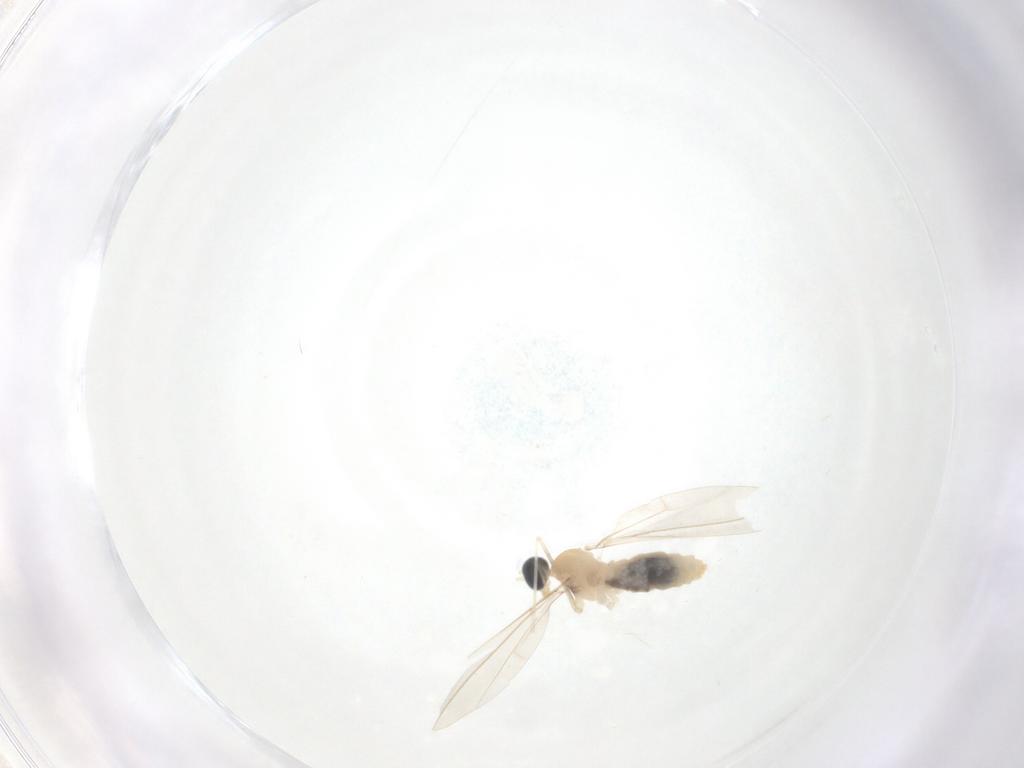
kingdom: Animalia
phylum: Arthropoda
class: Insecta
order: Diptera
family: Cecidomyiidae
